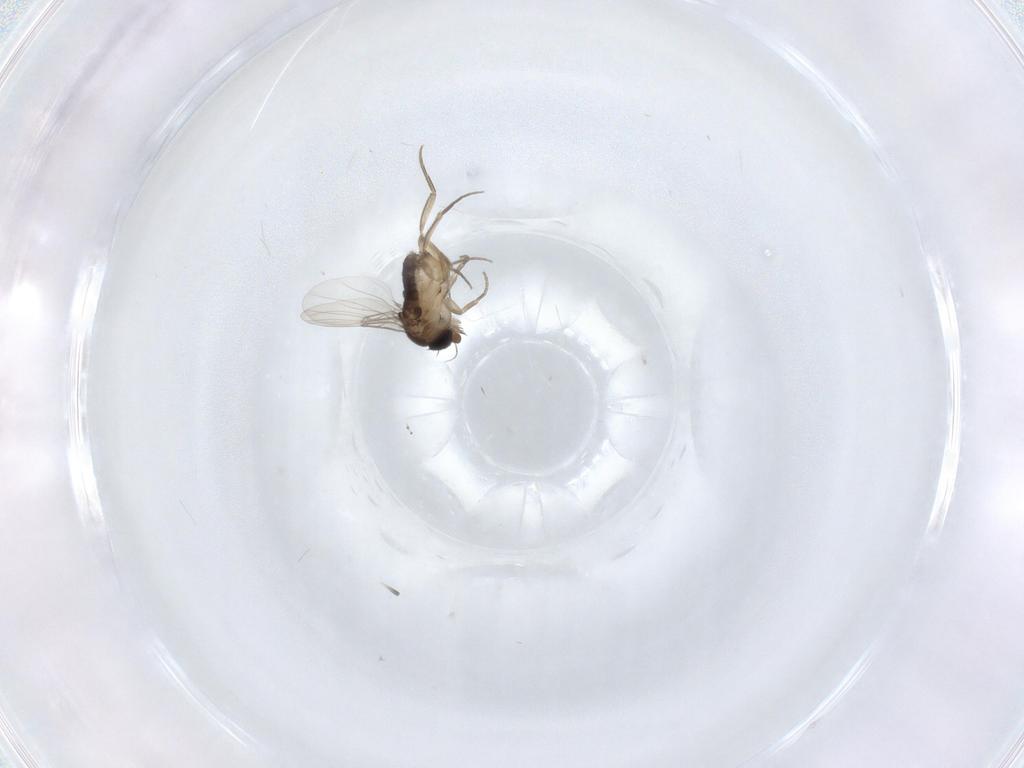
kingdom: Animalia
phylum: Arthropoda
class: Insecta
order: Diptera
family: Phoridae
